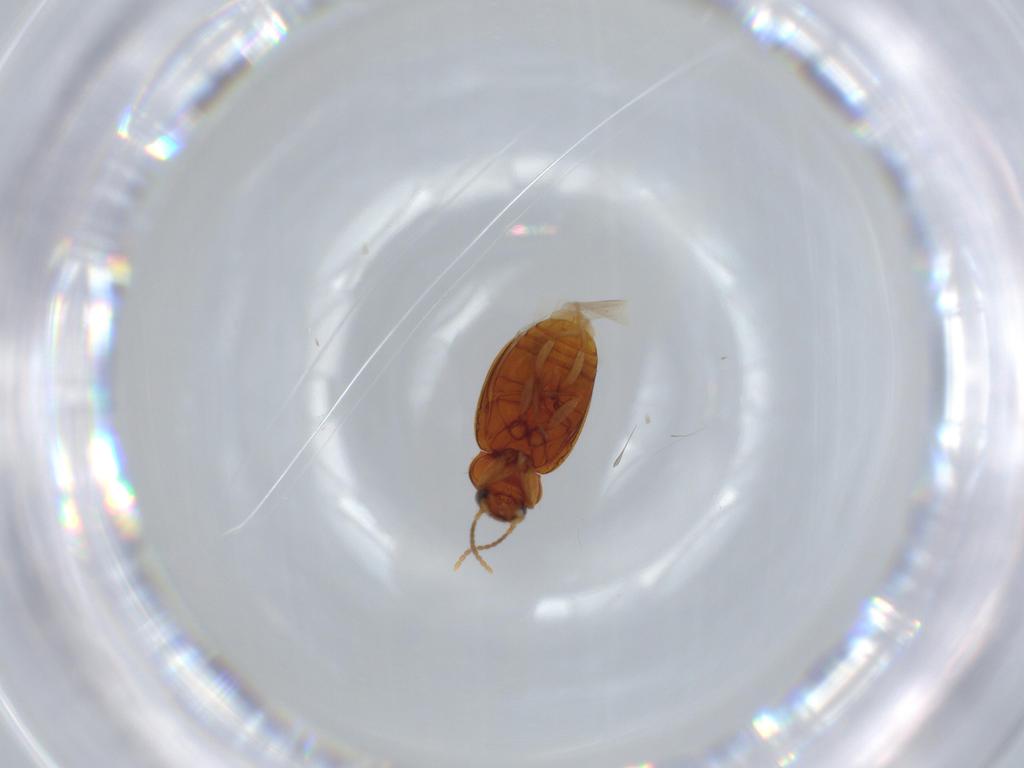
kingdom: Animalia
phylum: Arthropoda
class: Insecta
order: Coleoptera
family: Carabidae
